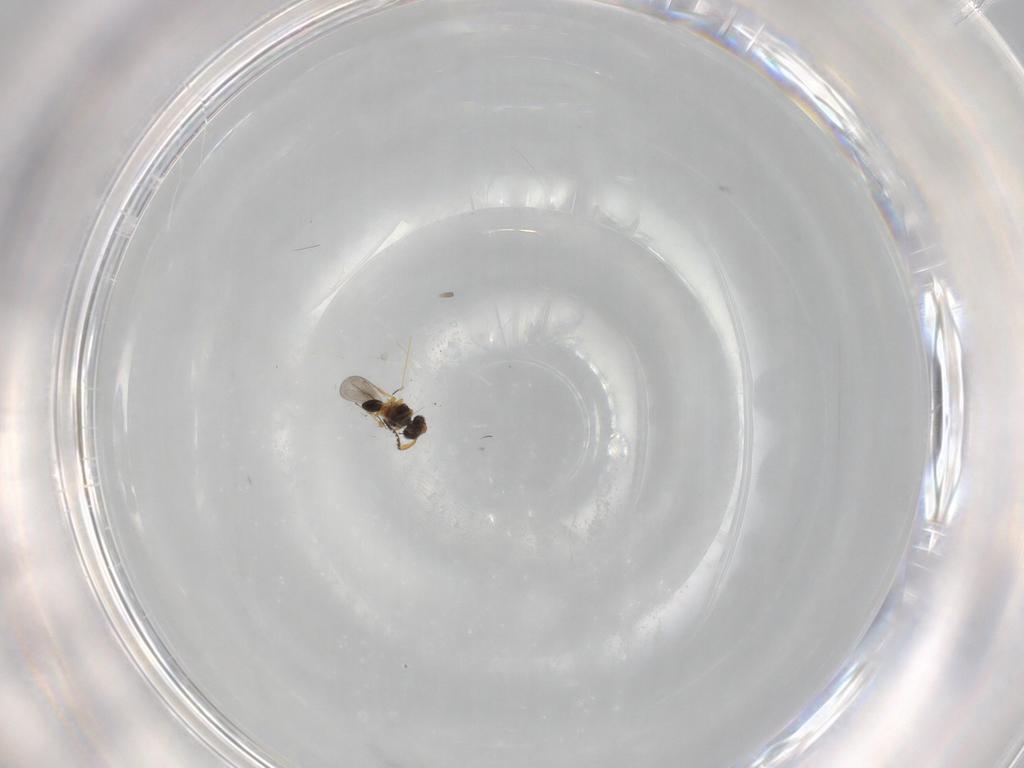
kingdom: Animalia
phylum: Arthropoda
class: Insecta
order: Hymenoptera
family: Platygastridae
